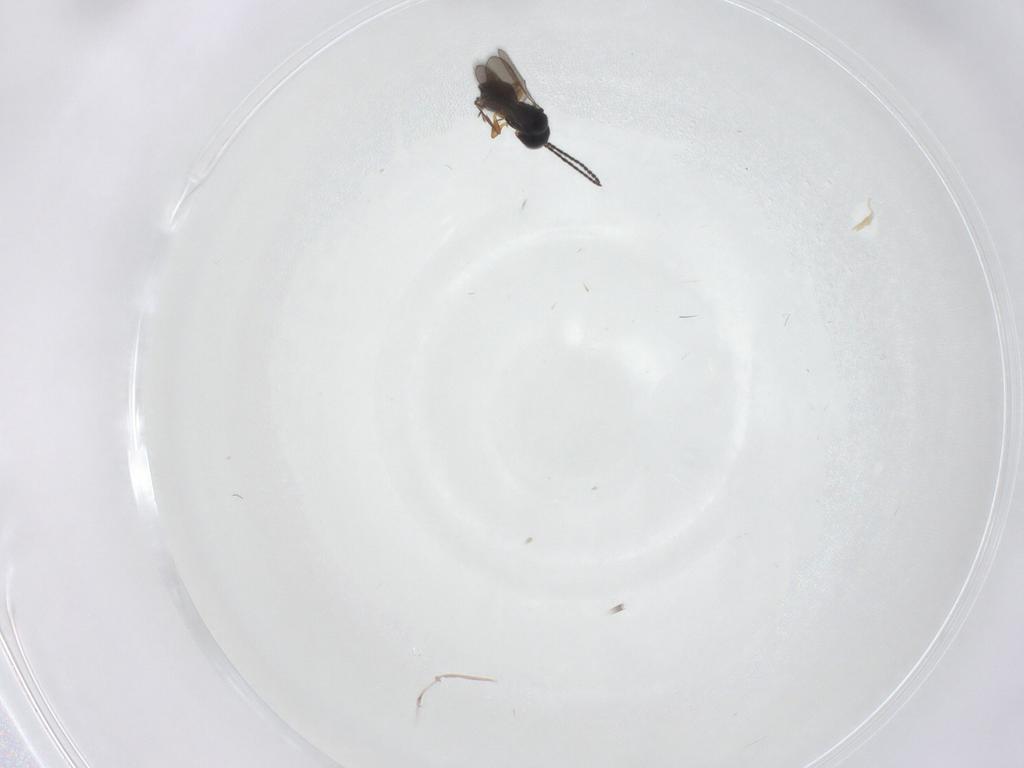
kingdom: Animalia
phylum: Arthropoda
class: Insecta
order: Hymenoptera
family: Scelionidae
